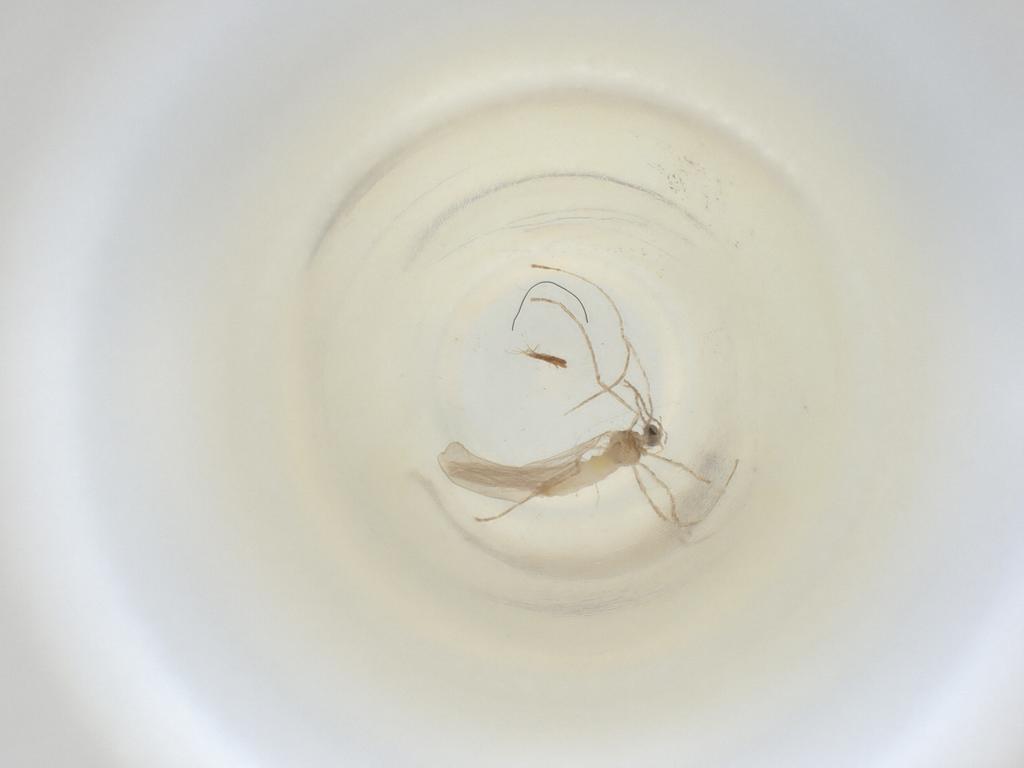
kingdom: Animalia
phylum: Arthropoda
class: Insecta
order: Diptera
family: Cecidomyiidae
